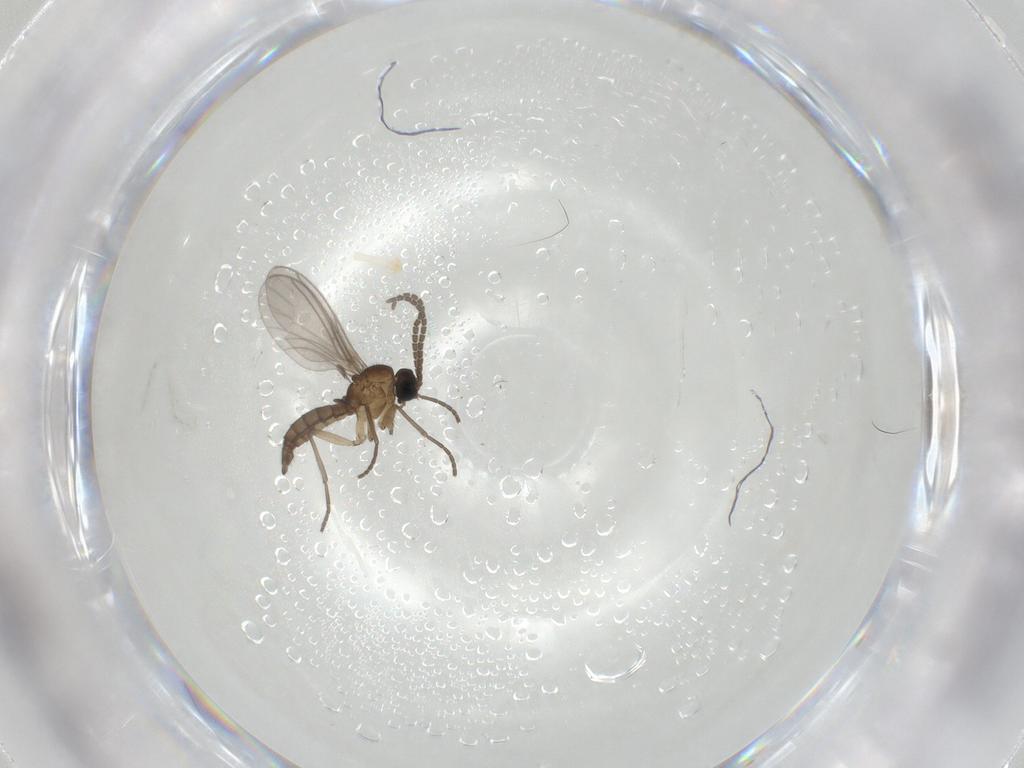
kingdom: Animalia
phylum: Arthropoda
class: Insecta
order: Diptera
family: Sciaridae
